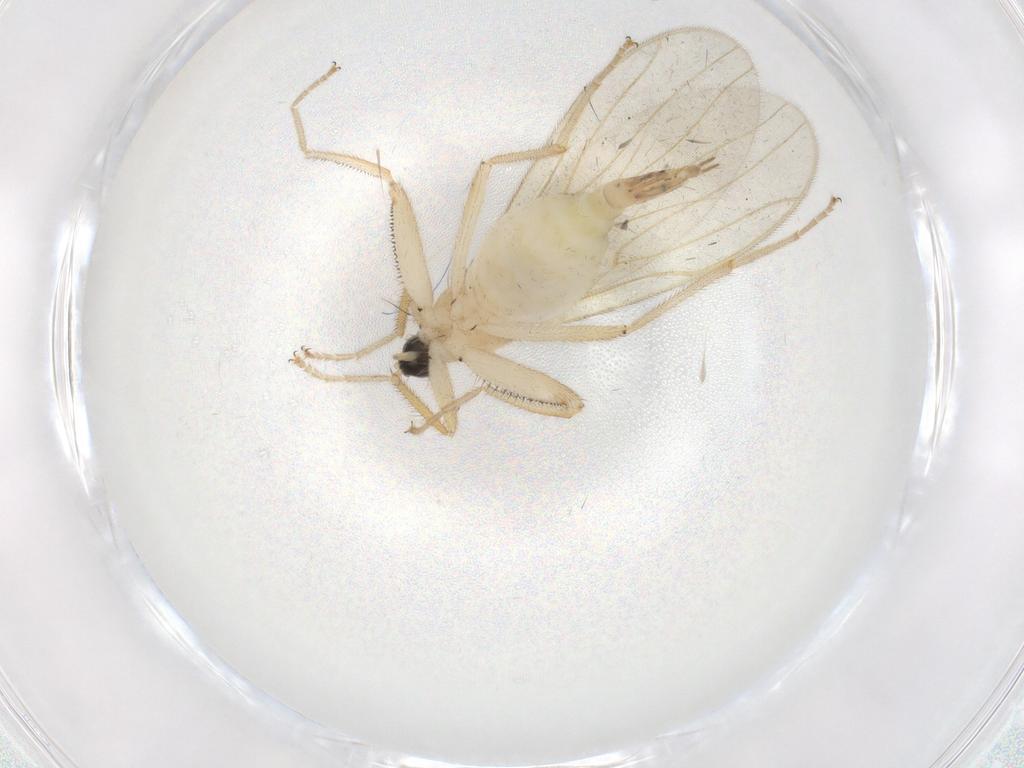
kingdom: Animalia
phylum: Arthropoda
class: Insecta
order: Diptera
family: Hybotidae
